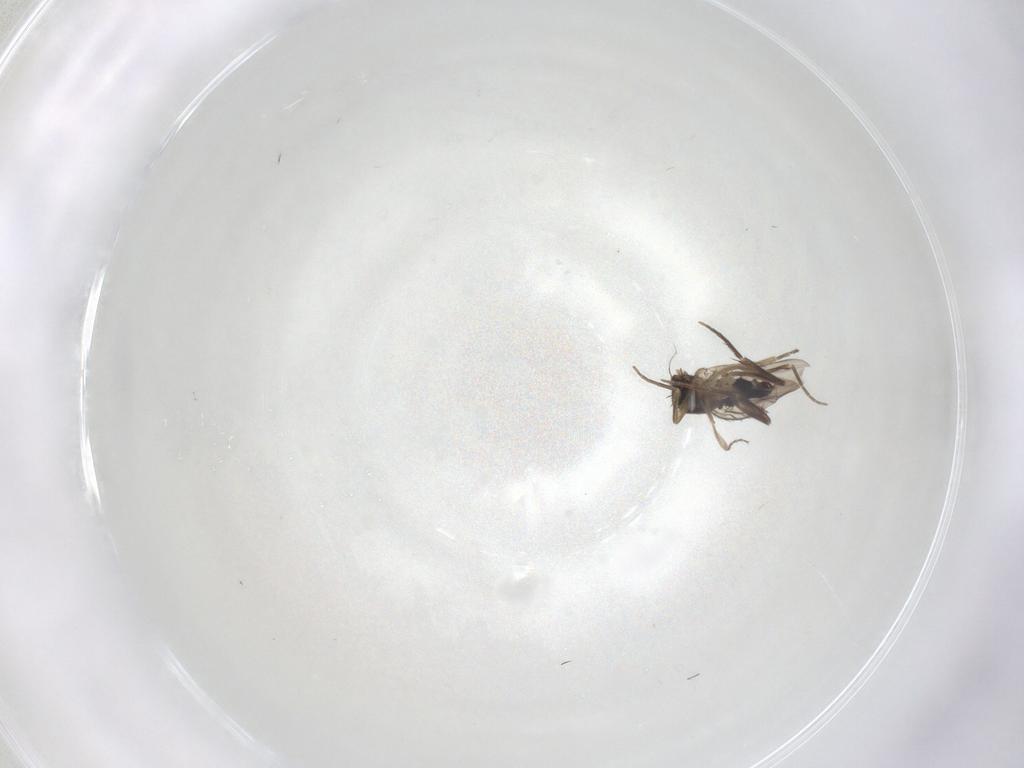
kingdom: Animalia
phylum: Arthropoda
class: Insecta
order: Diptera
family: Phoridae
